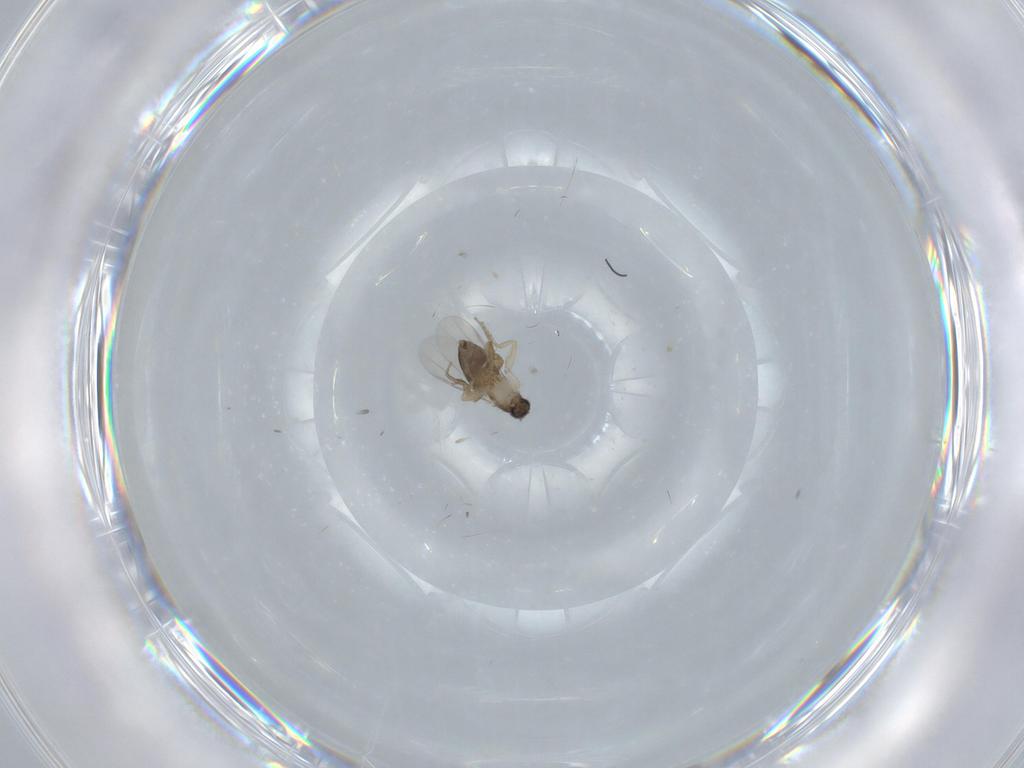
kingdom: Animalia
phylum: Arthropoda
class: Insecta
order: Diptera
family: Phoridae
